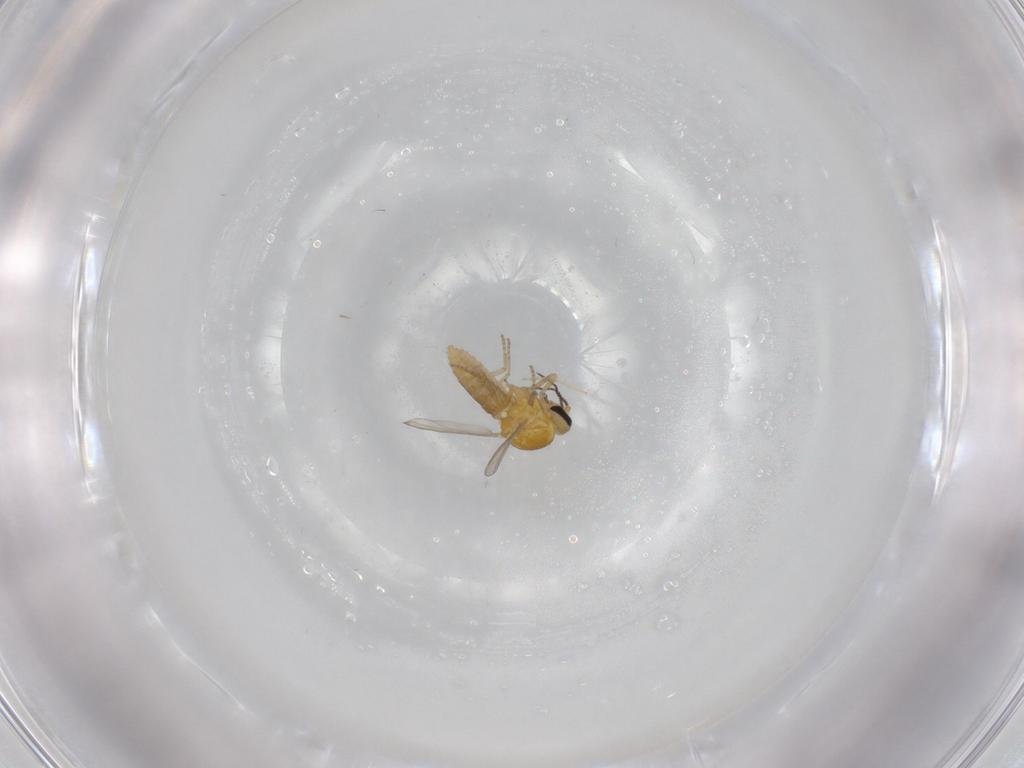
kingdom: Animalia
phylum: Arthropoda
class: Insecta
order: Diptera
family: Ceratopogonidae
